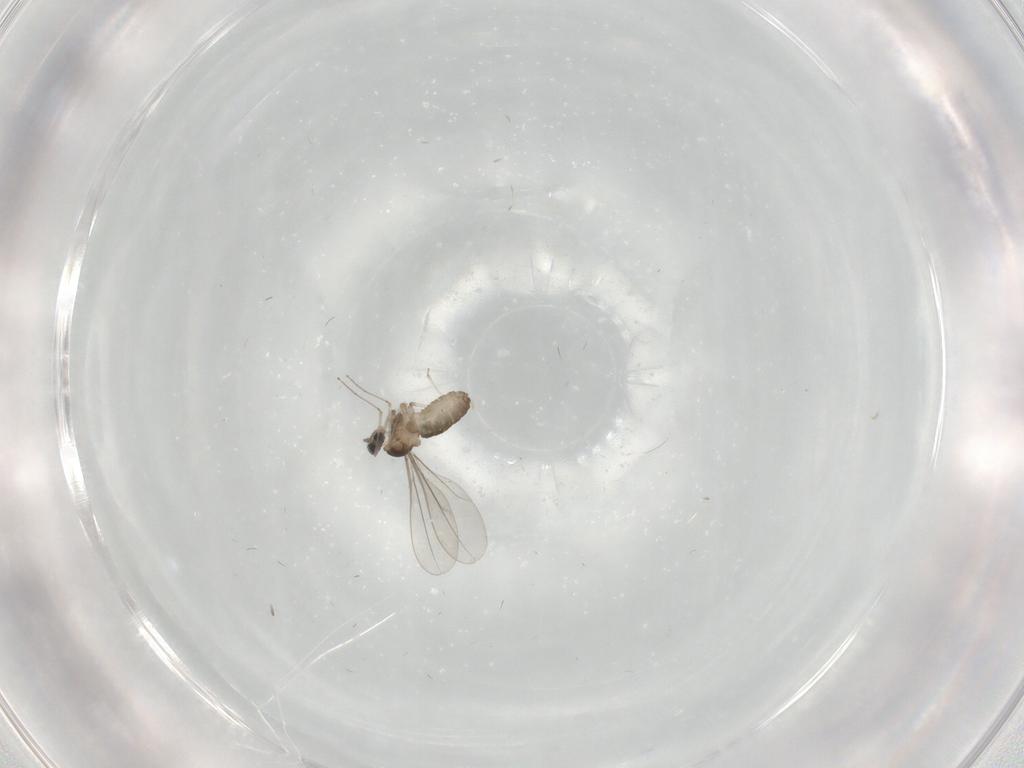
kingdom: Animalia
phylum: Arthropoda
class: Insecta
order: Diptera
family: Cecidomyiidae
